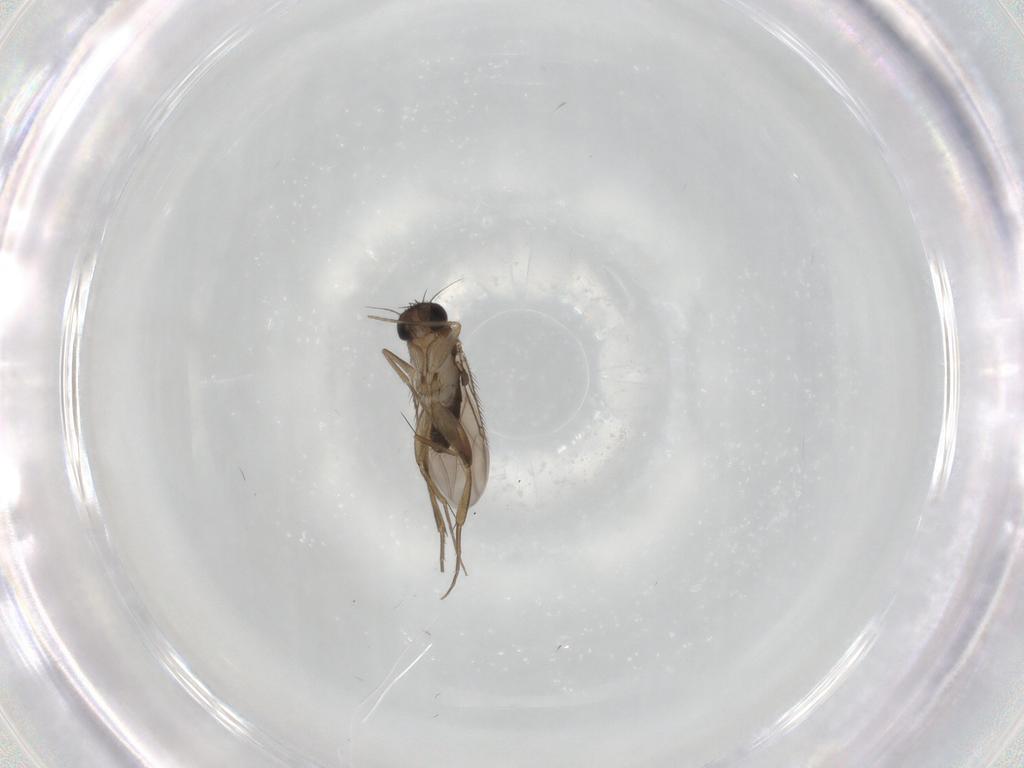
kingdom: Animalia
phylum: Arthropoda
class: Insecta
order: Diptera
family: Phoridae
